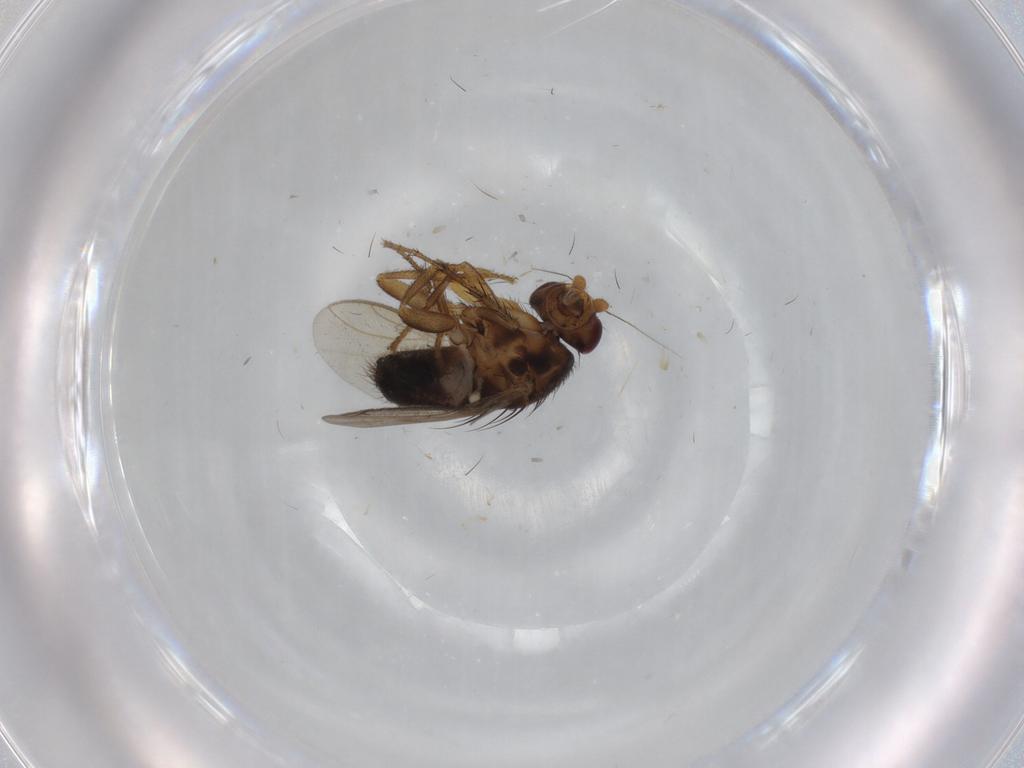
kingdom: Animalia
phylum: Arthropoda
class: Insecta
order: Diptera
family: Sphaeroceridae
